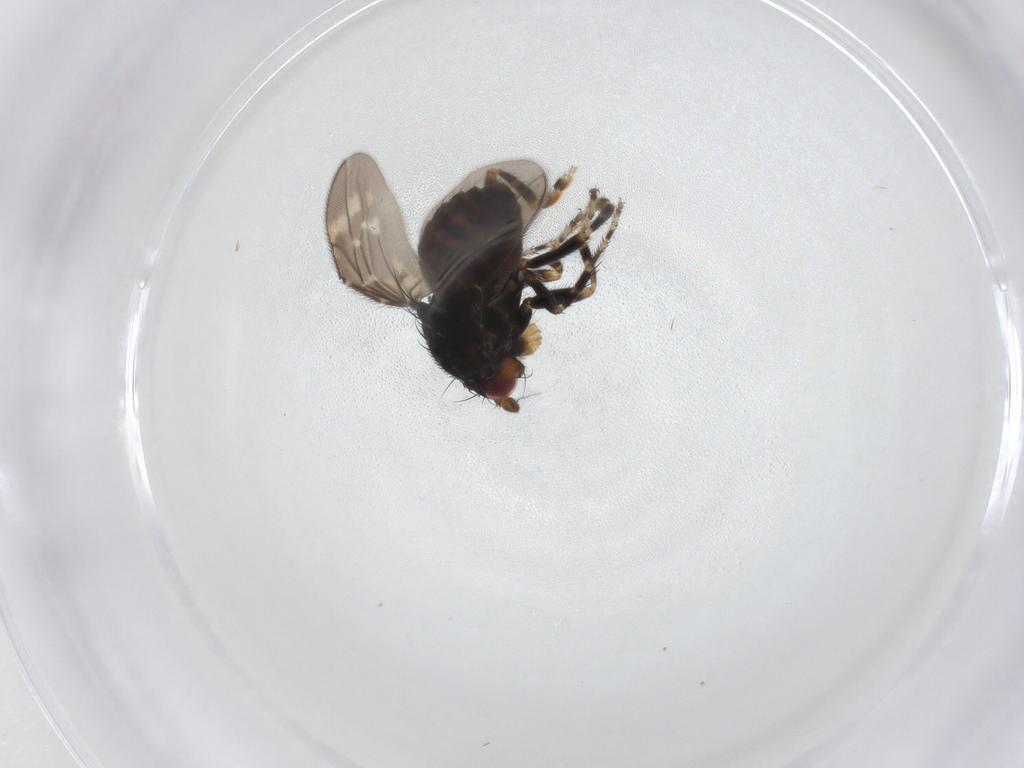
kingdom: Animalia
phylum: Arthropoda
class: Insecta
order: Diptera
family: Sphaeroceridae
